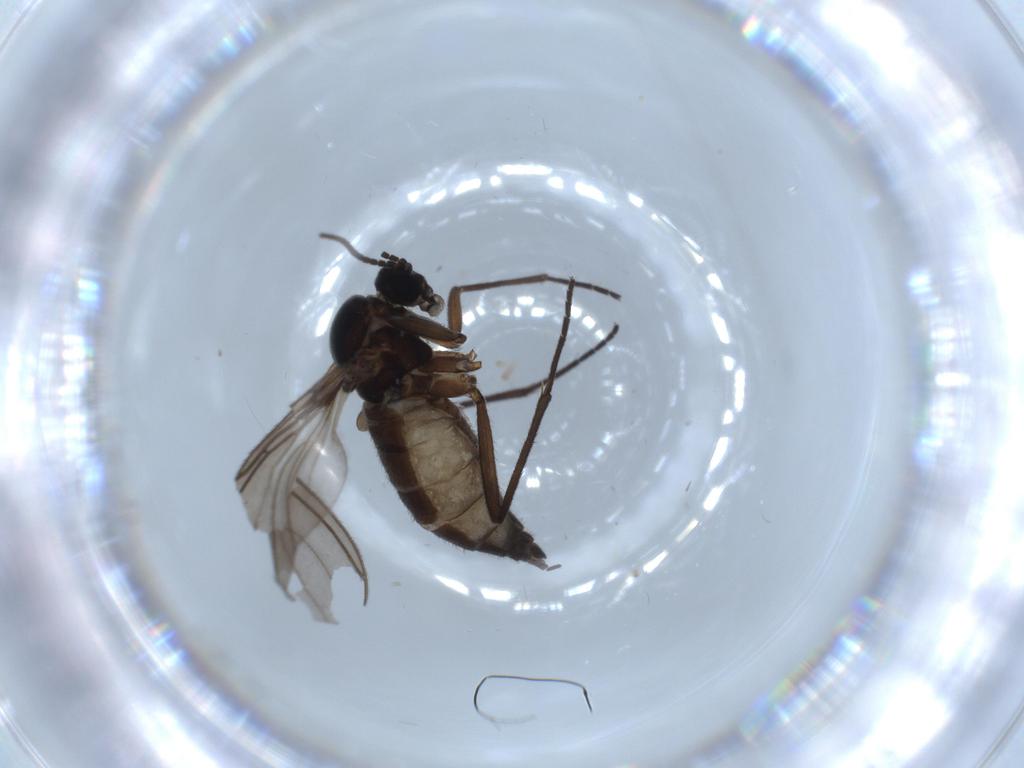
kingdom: Animalia
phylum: Arthropoda
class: Insecta
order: Diptera
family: Sciaridae
